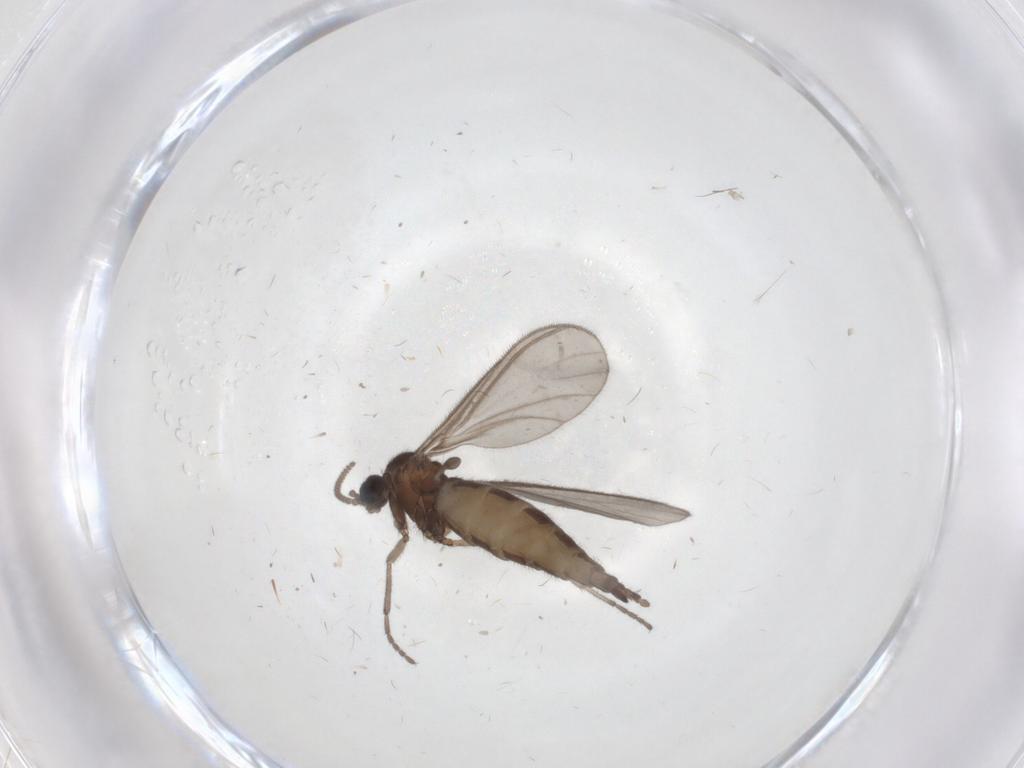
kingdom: Animalia
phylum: Arthropoda
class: Insecta
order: Diptera
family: Sciaridae
